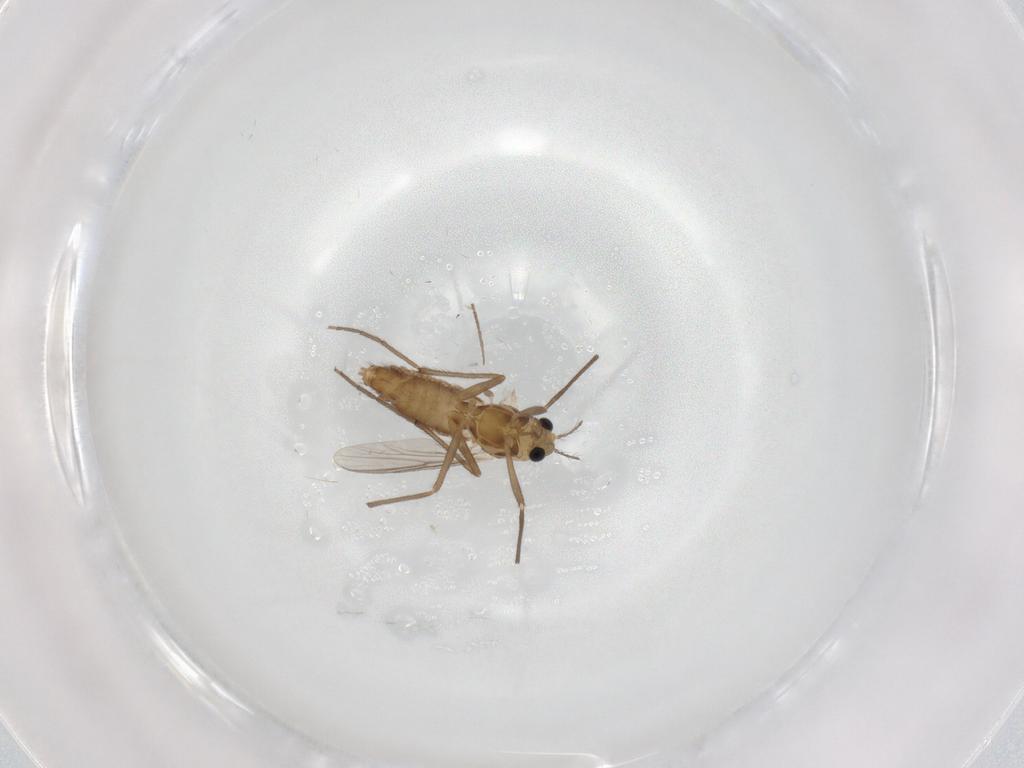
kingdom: Animalia
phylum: Arthropoda
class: Insecta
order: Diptera
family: Chironomidae
